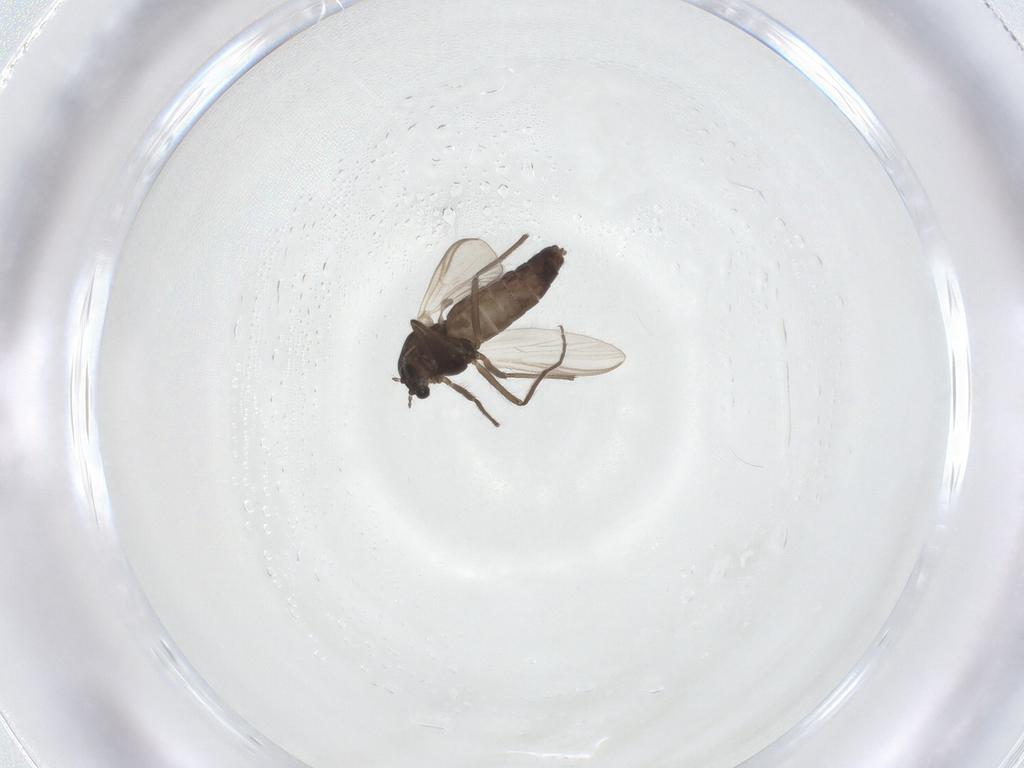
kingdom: Animalia
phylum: Arthropoda
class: Insecta
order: Diptera
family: Chironomidae
